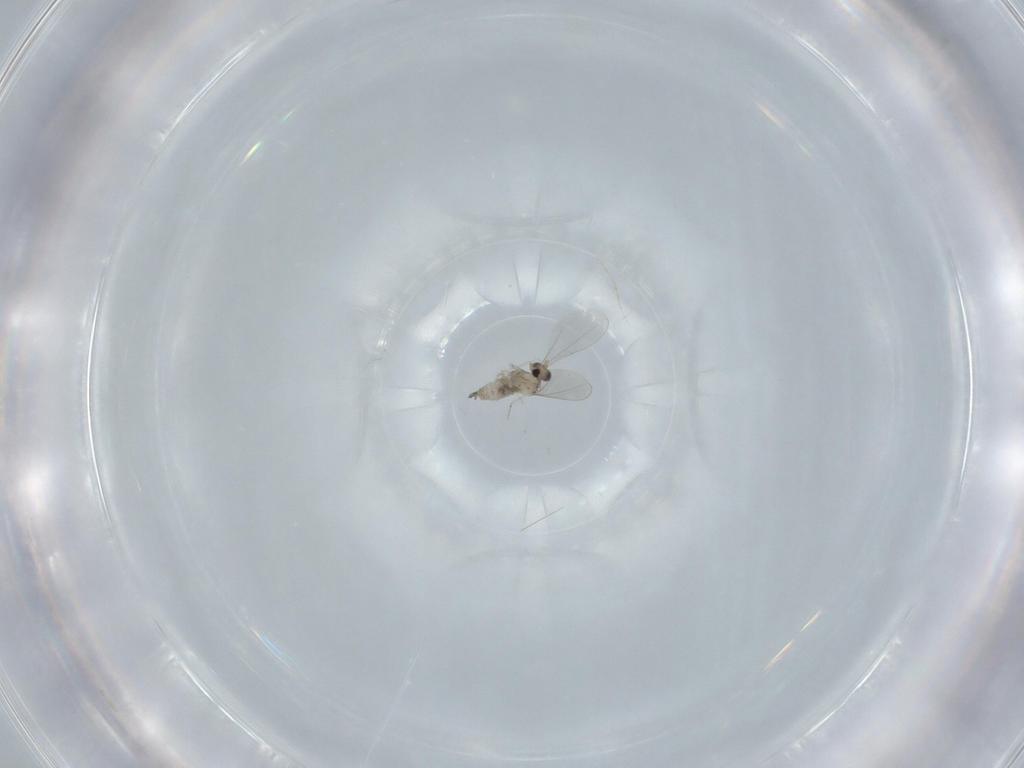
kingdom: Animalia
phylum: Arthropoda
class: Insecta
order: Diptera
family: Cecidomyiidae
